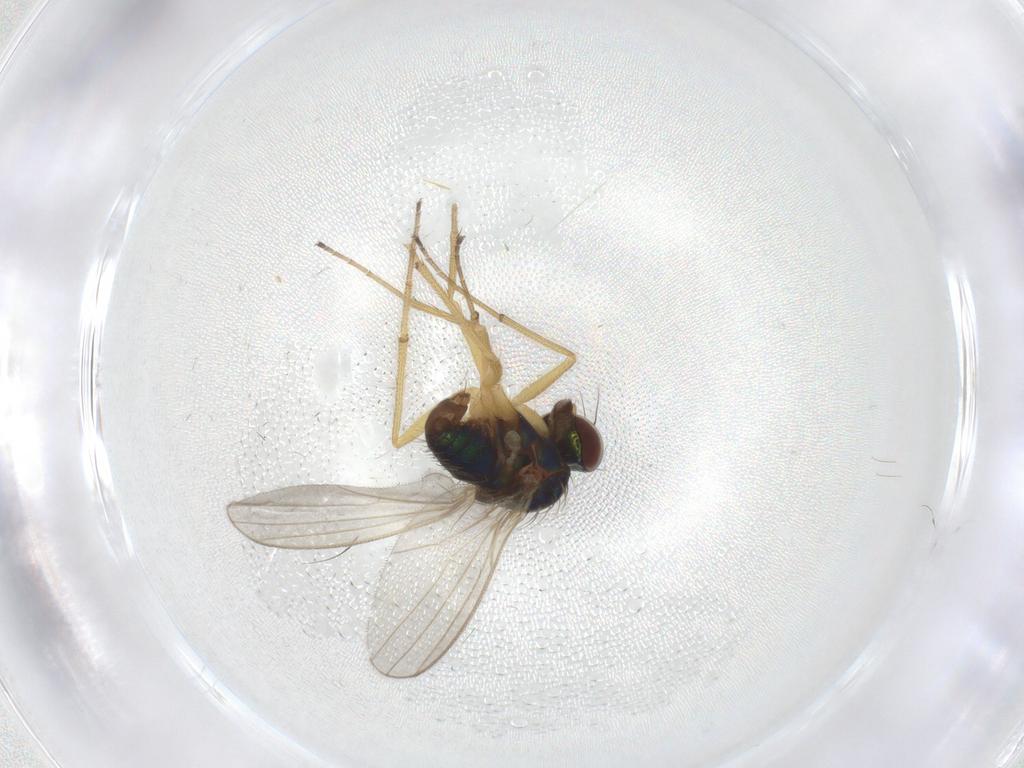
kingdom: Animalia
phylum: Arthropoda
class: Insecta
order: Diptera
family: Dolichopodidae
